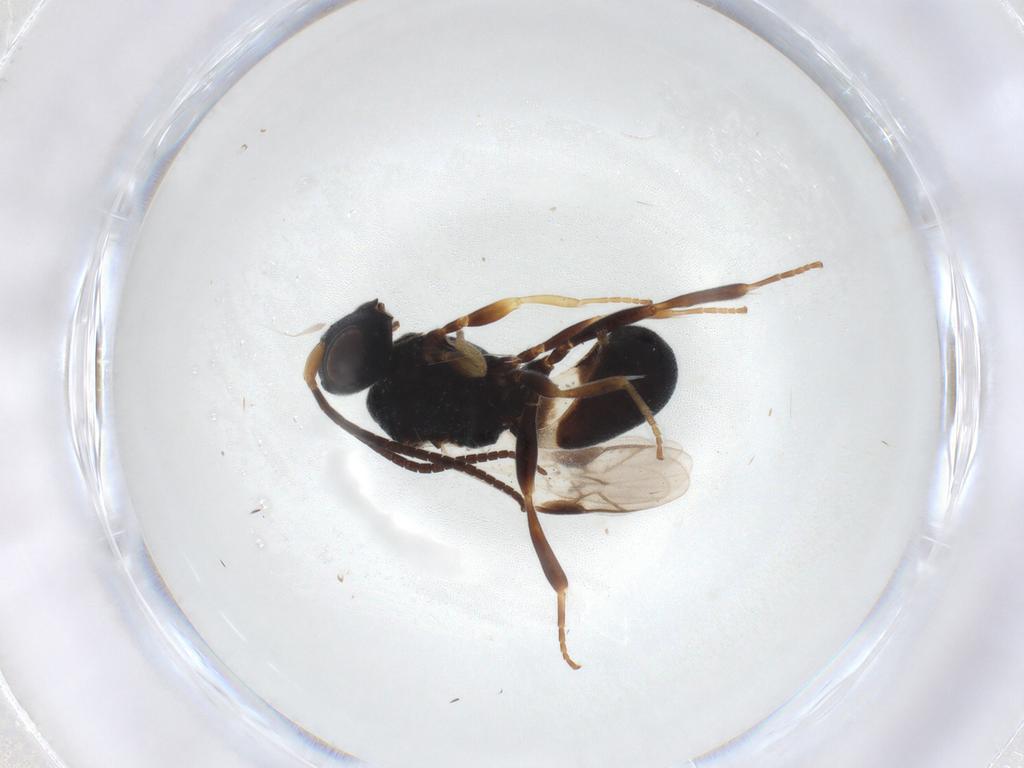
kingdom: Animalia
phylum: Arthropoda
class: Insecta
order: Hymenoptera
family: Braconidae
